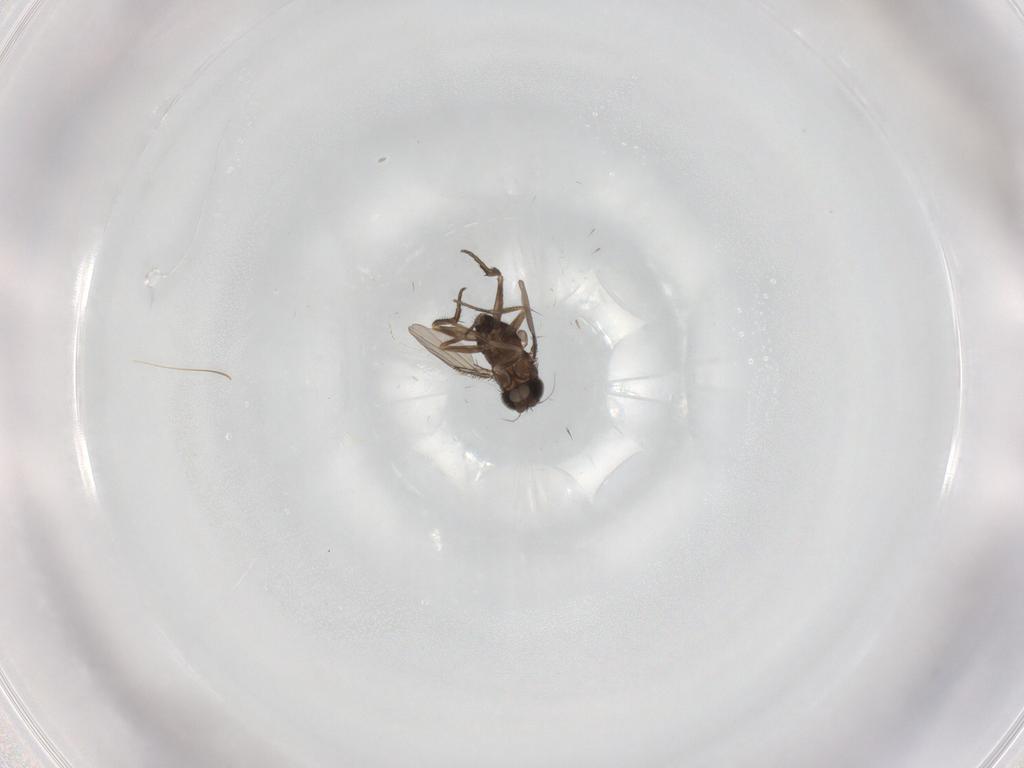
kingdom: Animalia
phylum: Arthropoda
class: Insecta
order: Diptera
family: Phoridae
